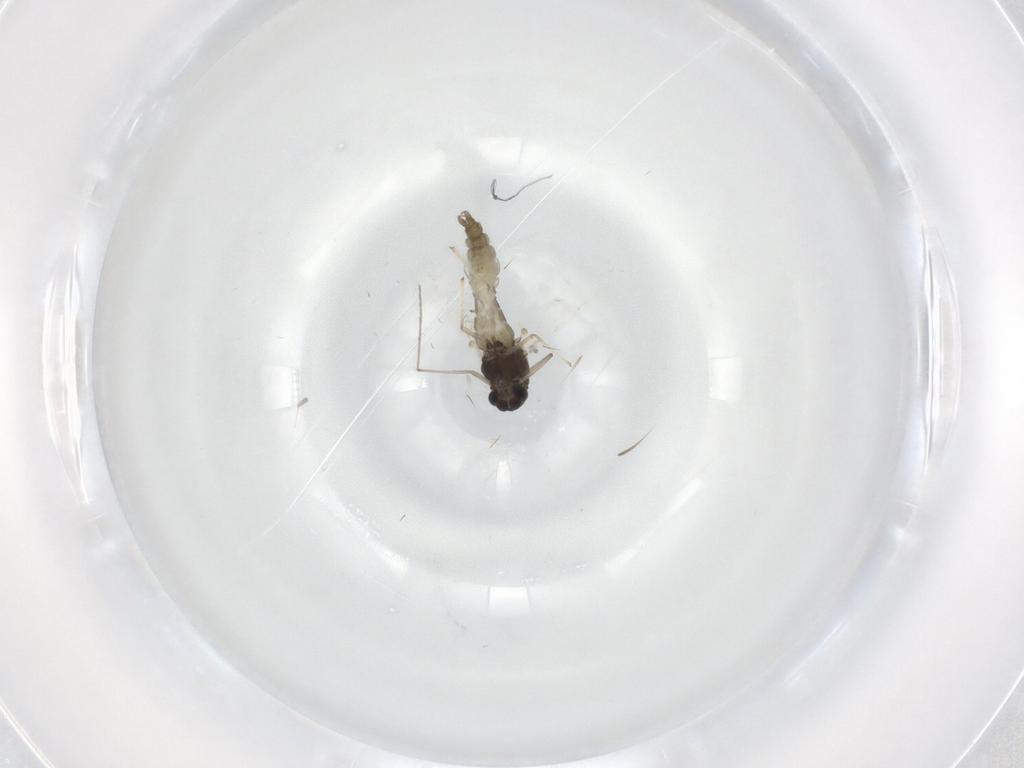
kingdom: Animalia
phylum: Arthropoda
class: Insecta
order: Diptera
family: Chironomidae
